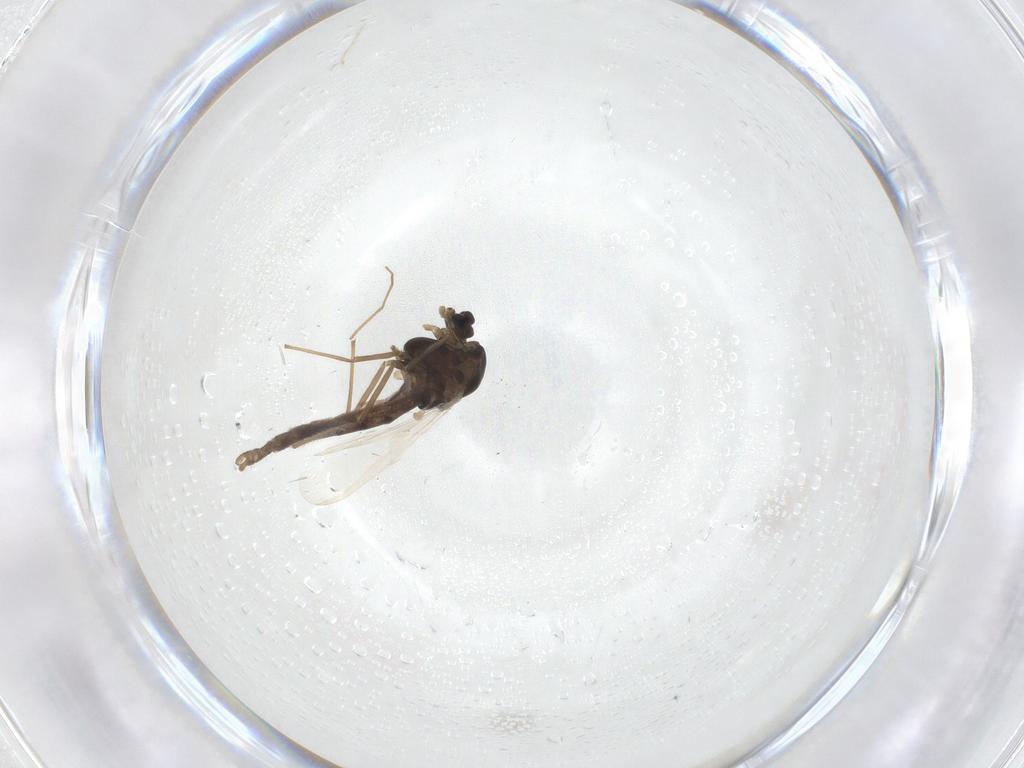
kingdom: Animalia
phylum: Arthropoda
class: Insecta
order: Diptera
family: Chironomidae
